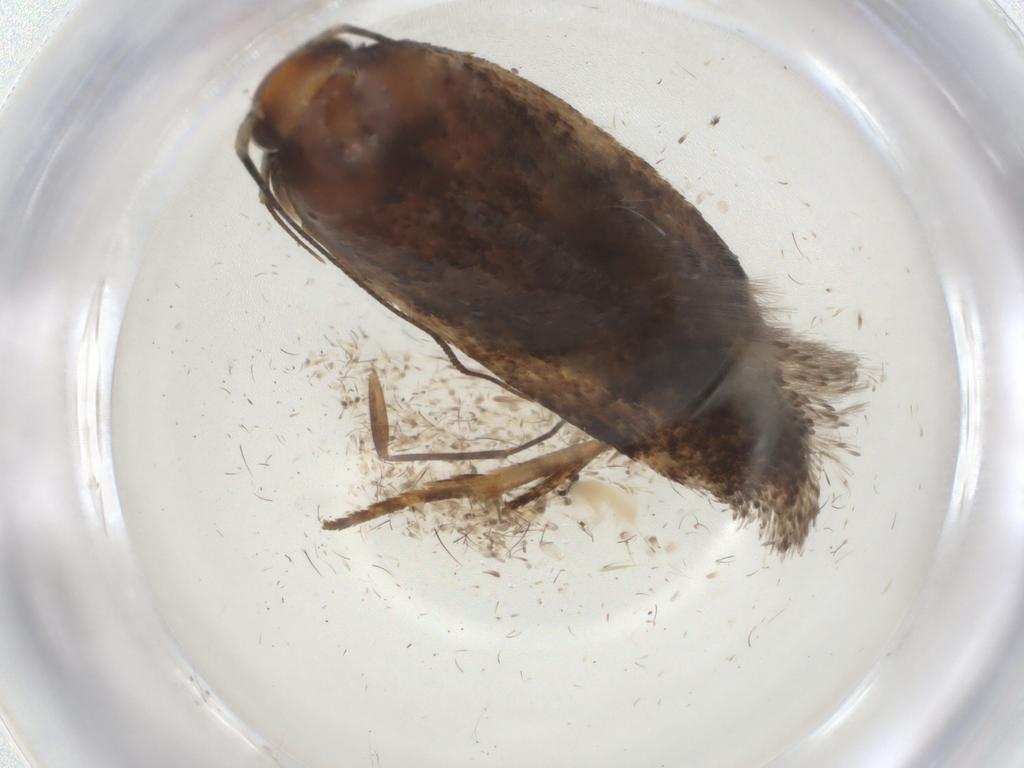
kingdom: Animalia
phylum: Arthropoda
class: Insecta
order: Lepidoptera
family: Gelechiidae
